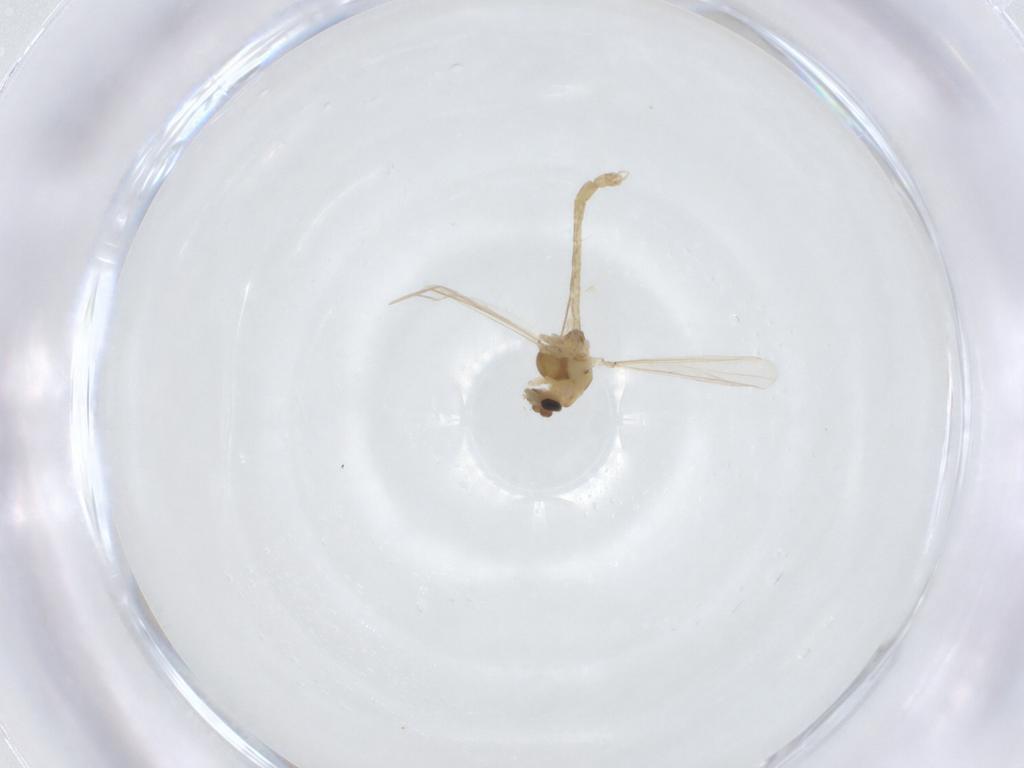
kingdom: Animalia
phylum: Arthropoda
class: Insecta
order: Diptera
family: Chironomidae
